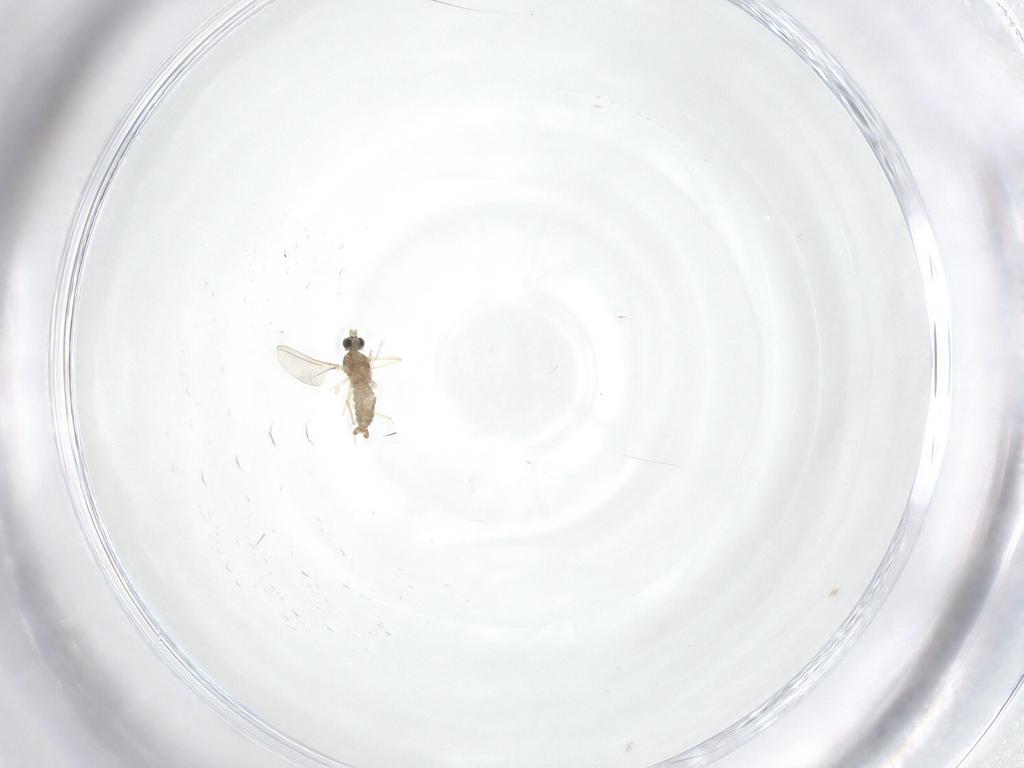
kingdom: Animalia
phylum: Arthropoda
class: Insecta
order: Diptera
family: Cecidomyiidae
